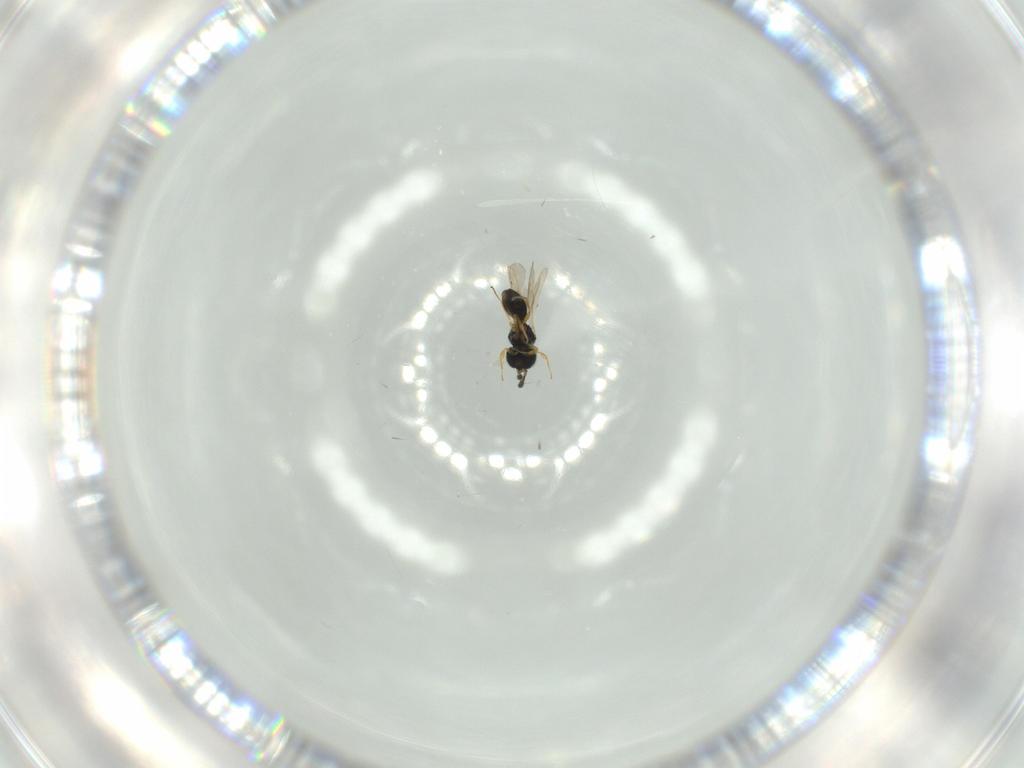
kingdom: Animalia
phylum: Arthropoda
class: Insecta
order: Hymenoptera
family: Scelionidae
